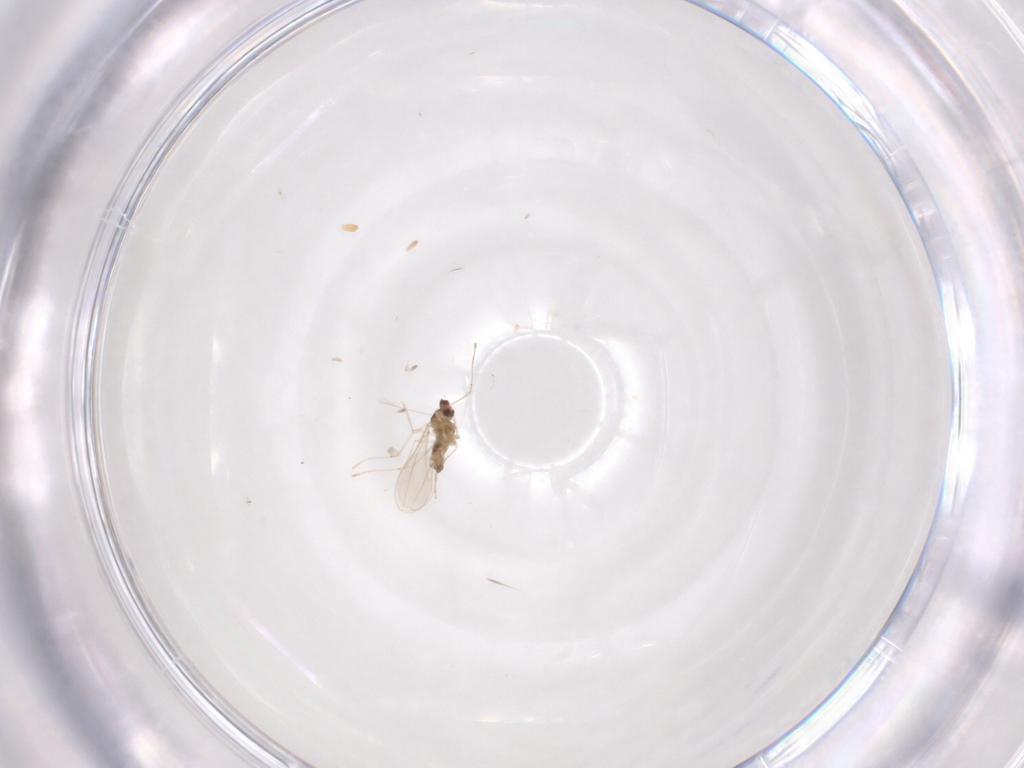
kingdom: Animalia
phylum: Arthropoda
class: Insecta
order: Diptera
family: Cecidomyiidae
